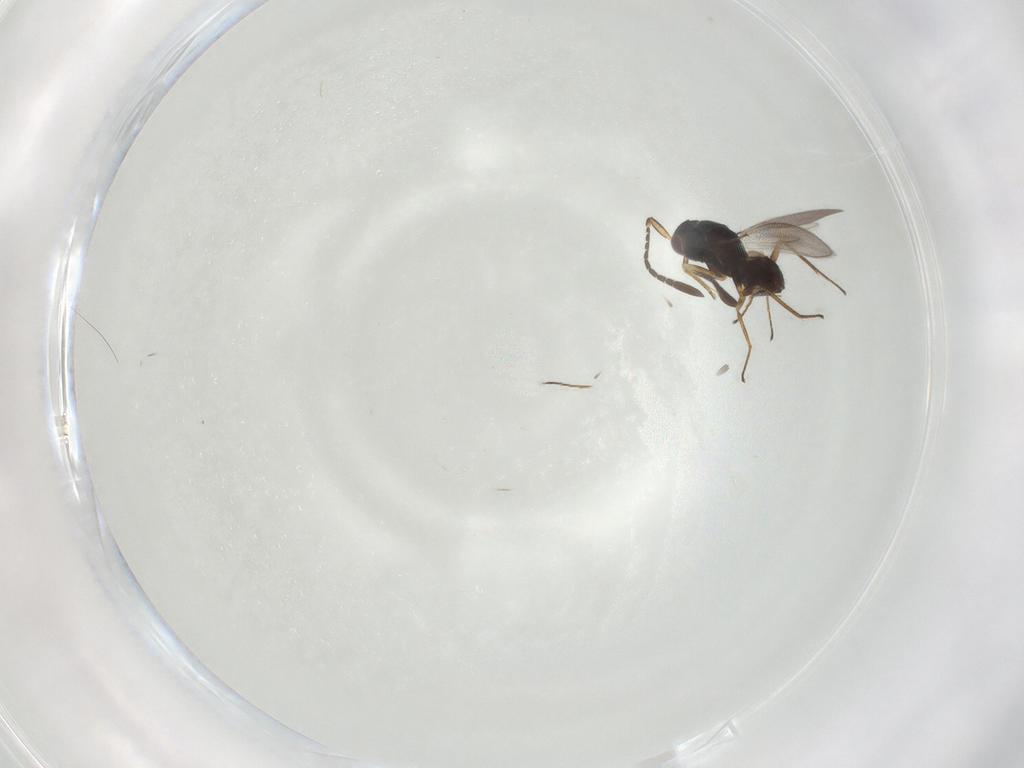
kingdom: Animalia
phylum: Arthropoda
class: Insecta
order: Hymenoptera
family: Mymaridae
